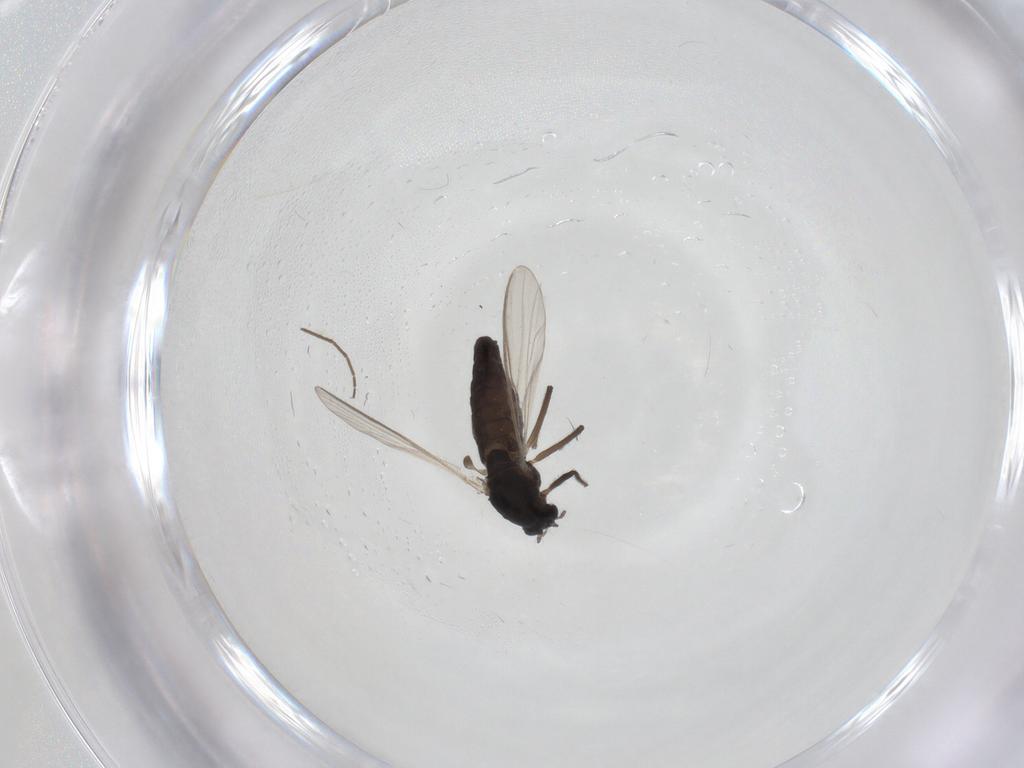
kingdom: Animalia
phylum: Arthropoda
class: Insecta
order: Diptera
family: Chironomidae
